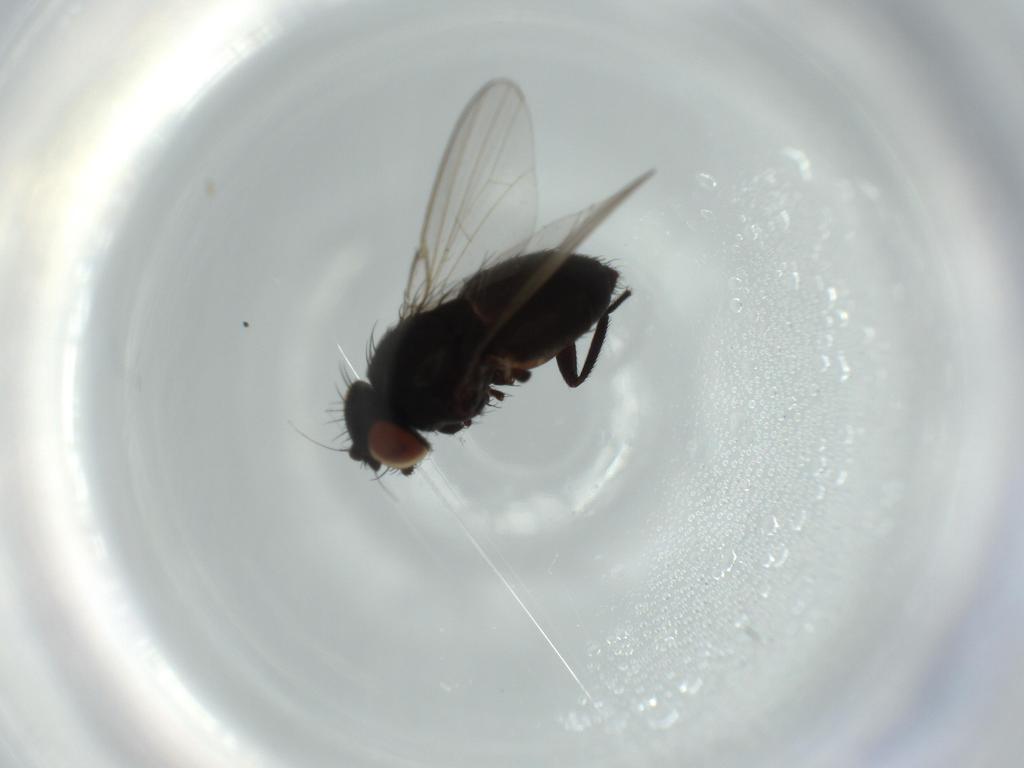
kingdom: Animalia
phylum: Arthropoda
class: Insecta
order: Diptera
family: Milichiidae
